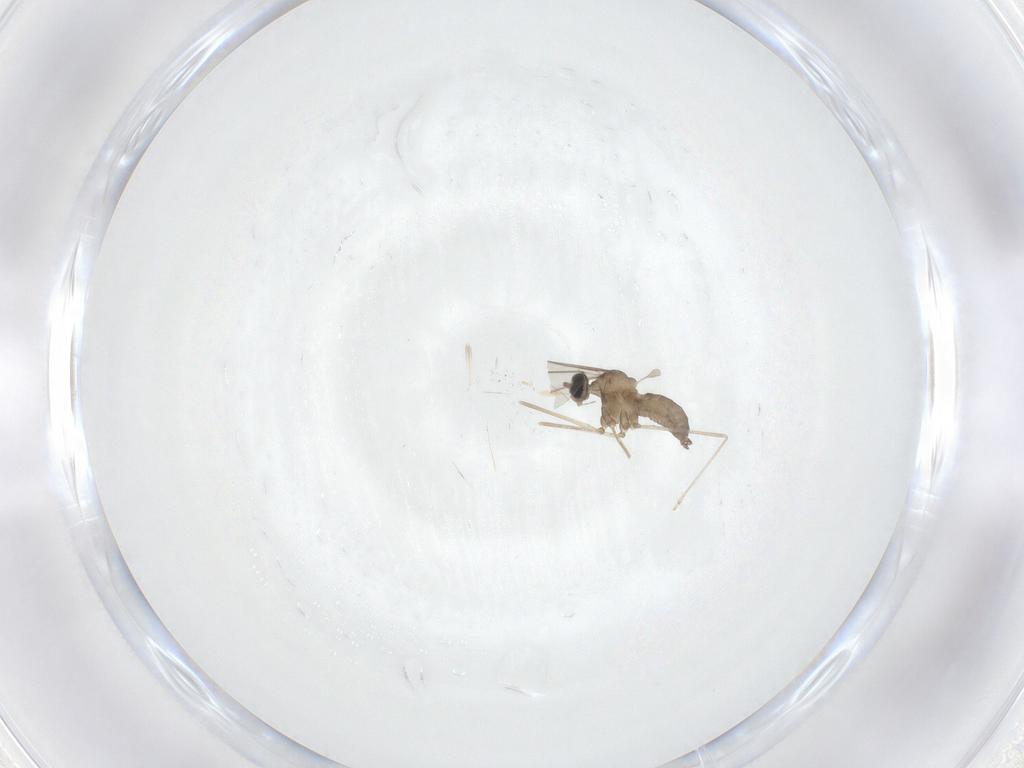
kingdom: Animalia
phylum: Arthropoda
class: Insecta
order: Diptera
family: Cecidomyiidae
